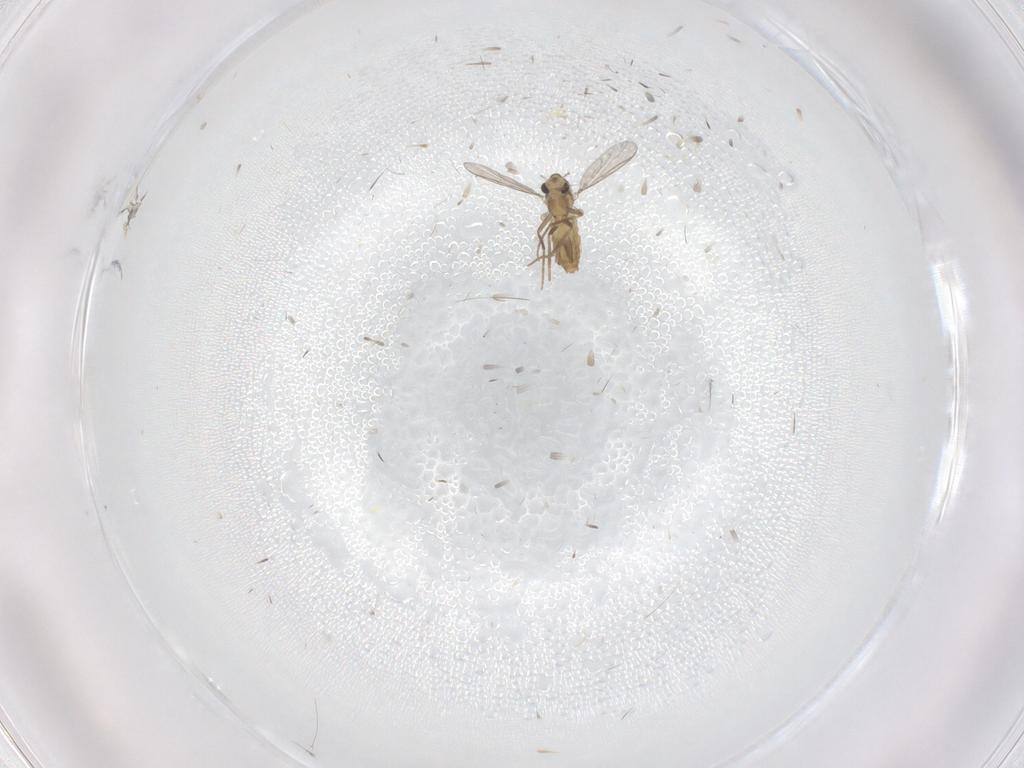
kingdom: Animalia
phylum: Arthropoda
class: Insecta
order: Diptera
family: Chironomidae
